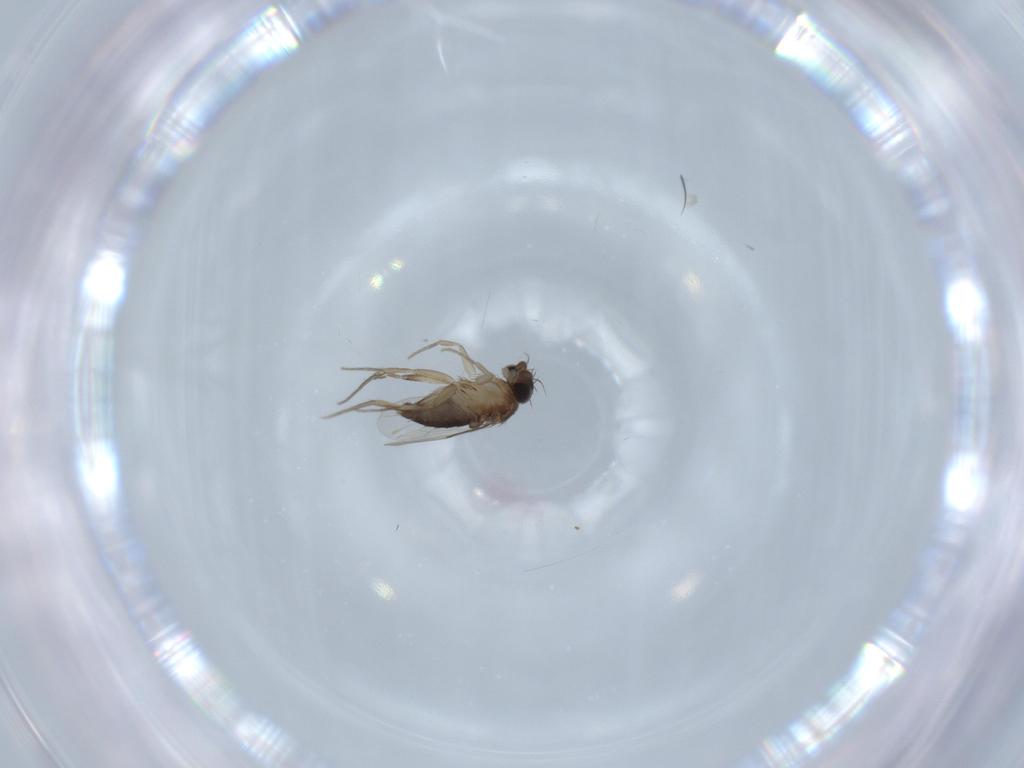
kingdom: Animalia
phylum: Arthropoda
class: Insecta
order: Diptera
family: Phoridae
